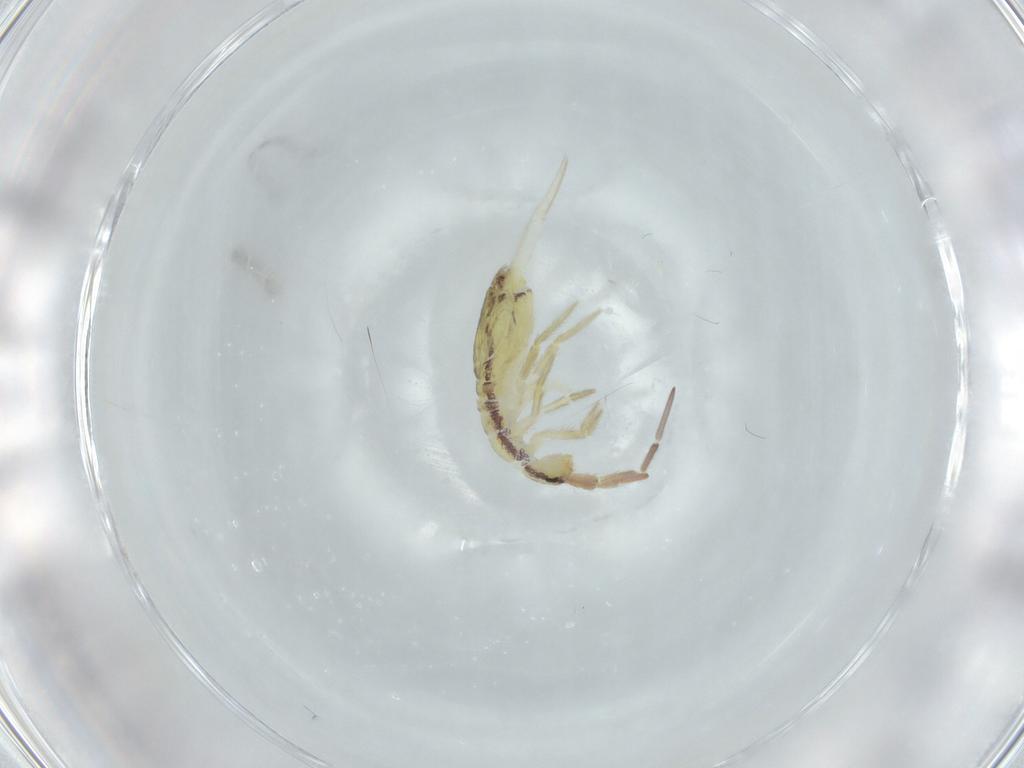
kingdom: Animalia
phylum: Arthropoda
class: Collembola
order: Entomobryomorpha
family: Entomobryidae
